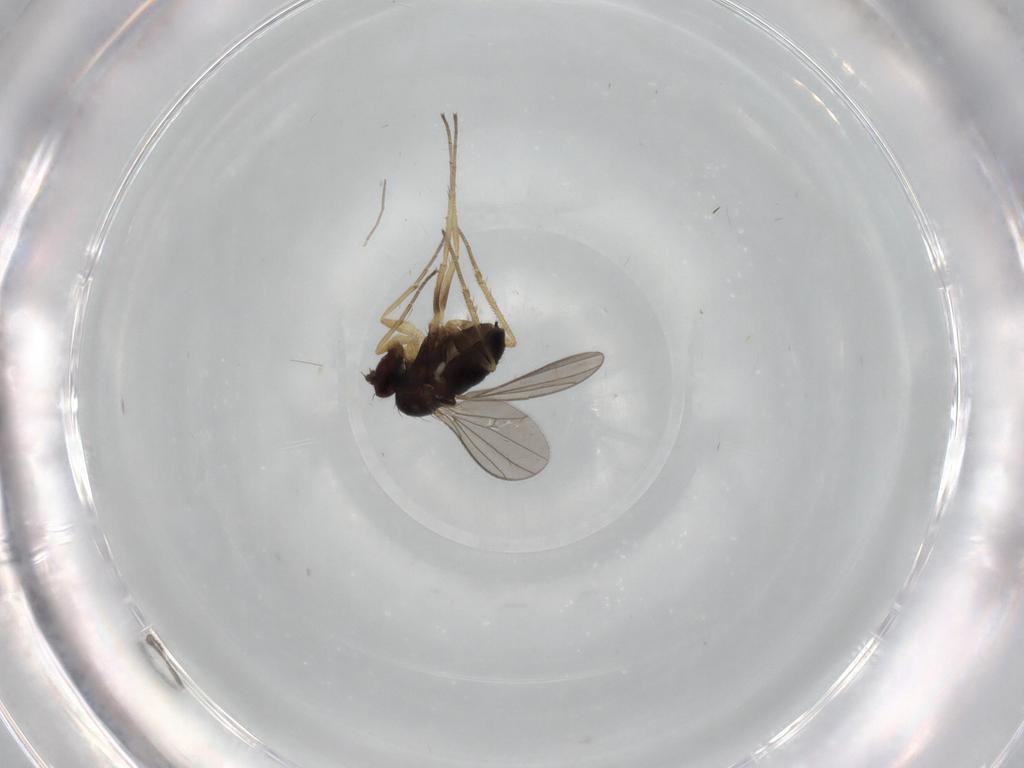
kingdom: Animalia
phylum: Arthropoda
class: Insecta
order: Diptera
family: Dolichopodidae
